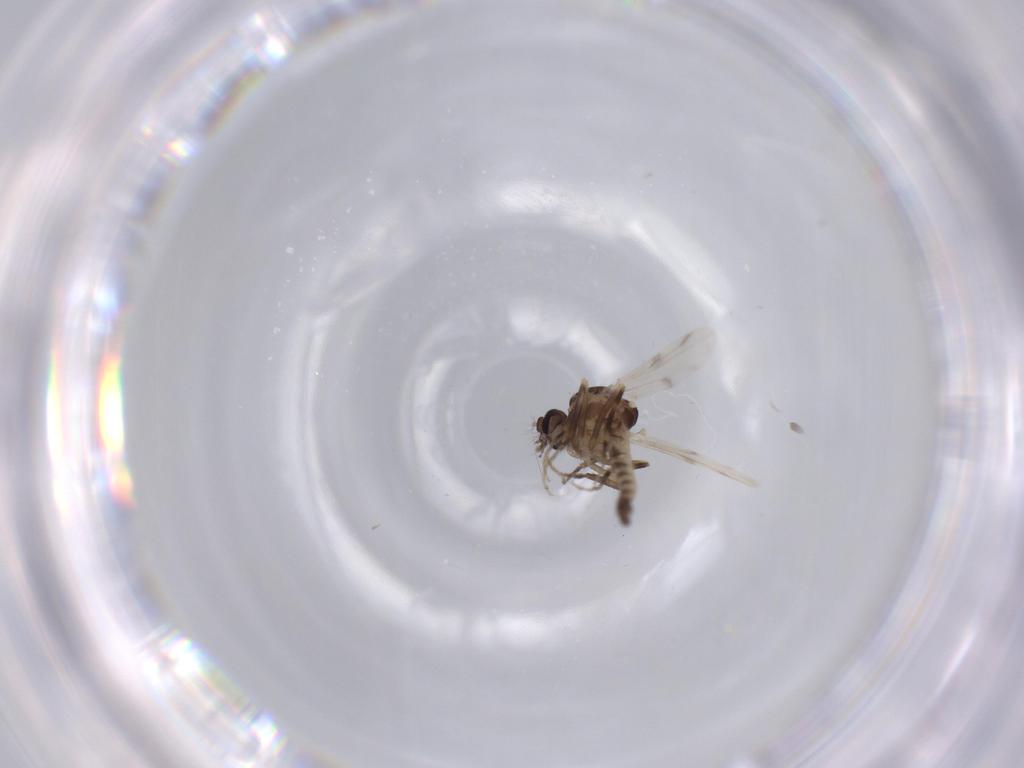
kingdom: Animalia
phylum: Arthropoda
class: Insecta
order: Diptera
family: Ceratopogonidae
